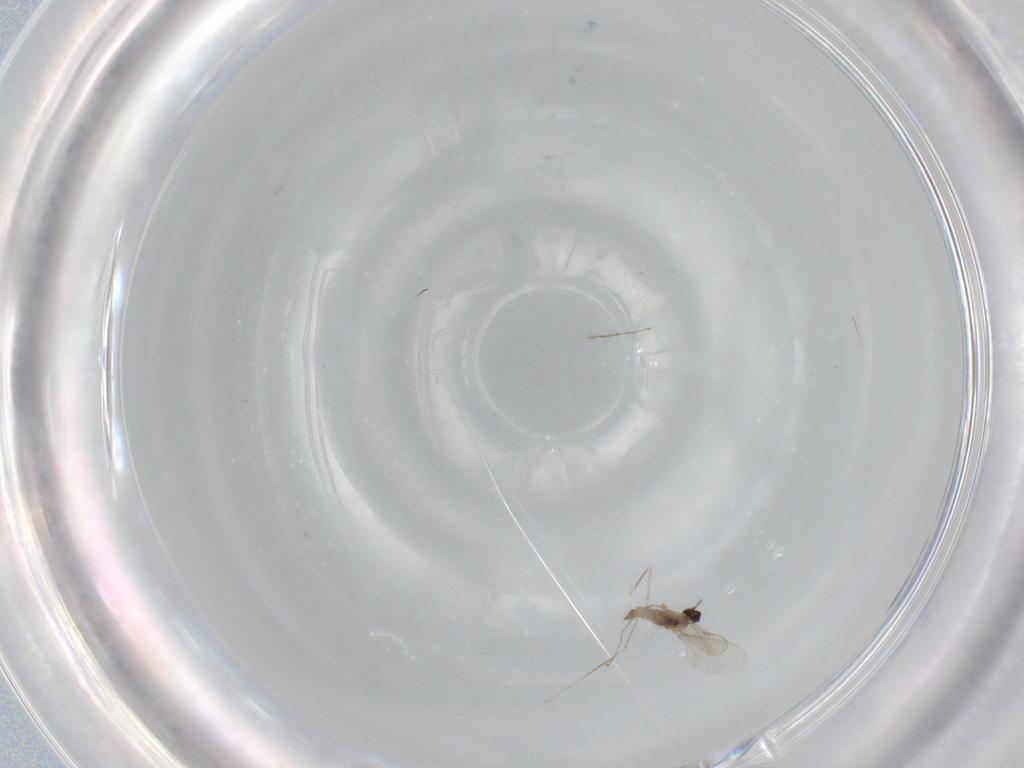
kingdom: Animalia
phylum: Arthropoda
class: Insecta
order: Diptera
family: Cecidomyiidae
